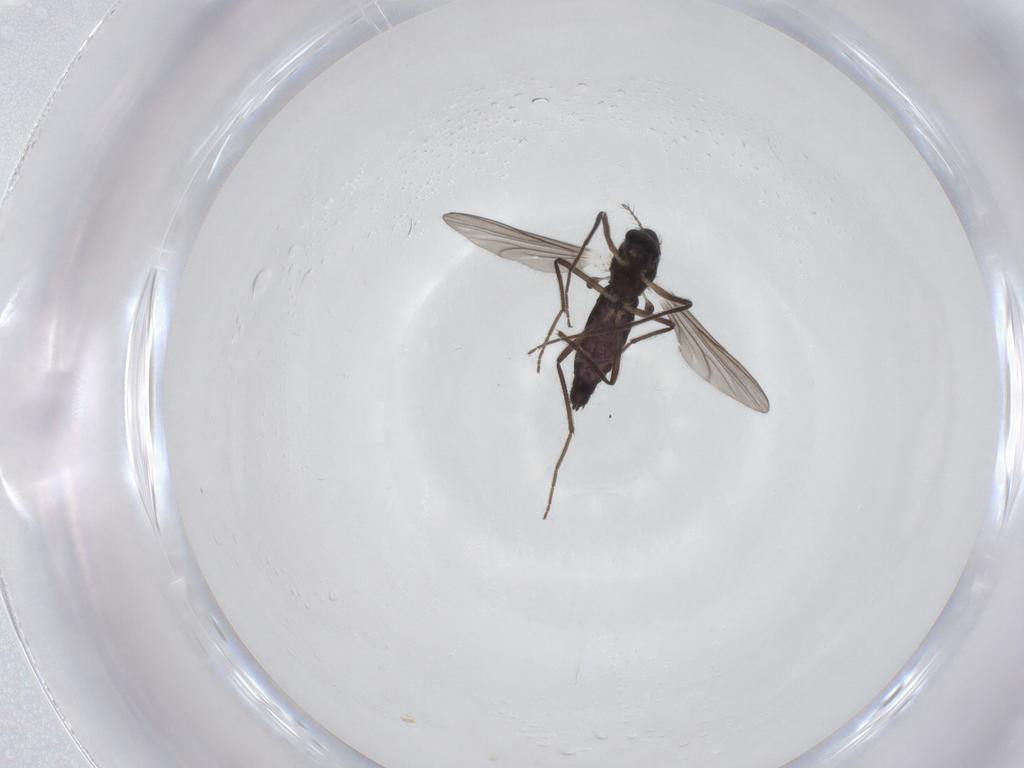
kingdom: Animalia
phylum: Arthropoda
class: Insecta
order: Diptera
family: Chironomidae
